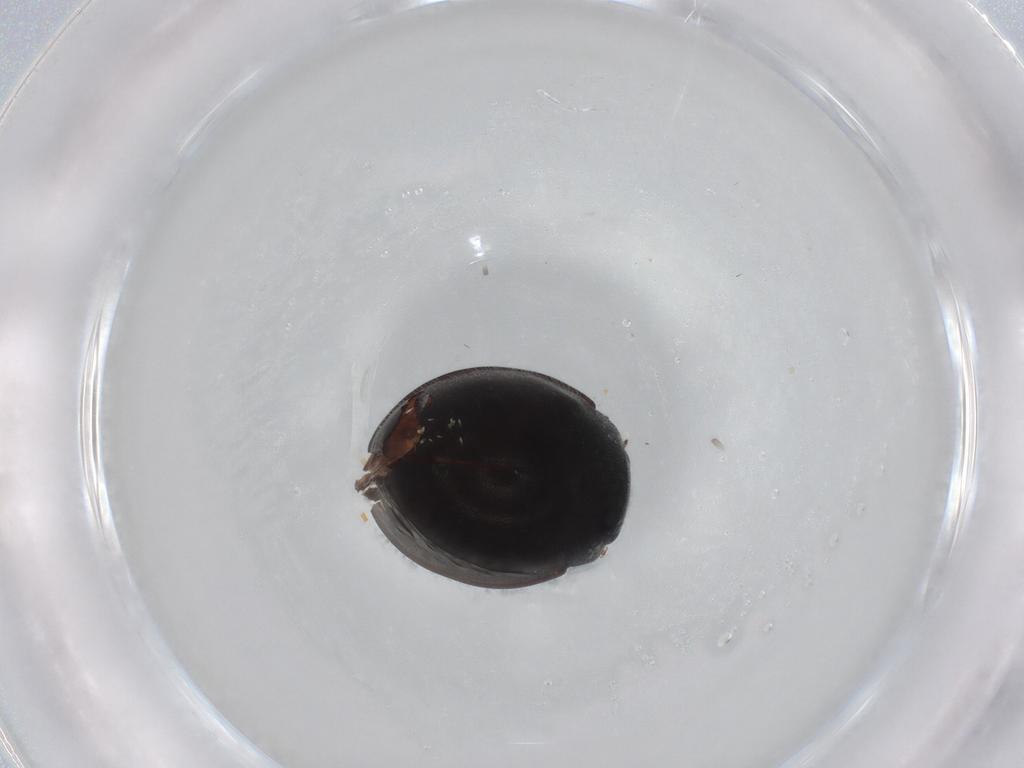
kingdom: Animalia
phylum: Arthropoda
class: Insecta
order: Coleoptera
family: Coccinellidae
